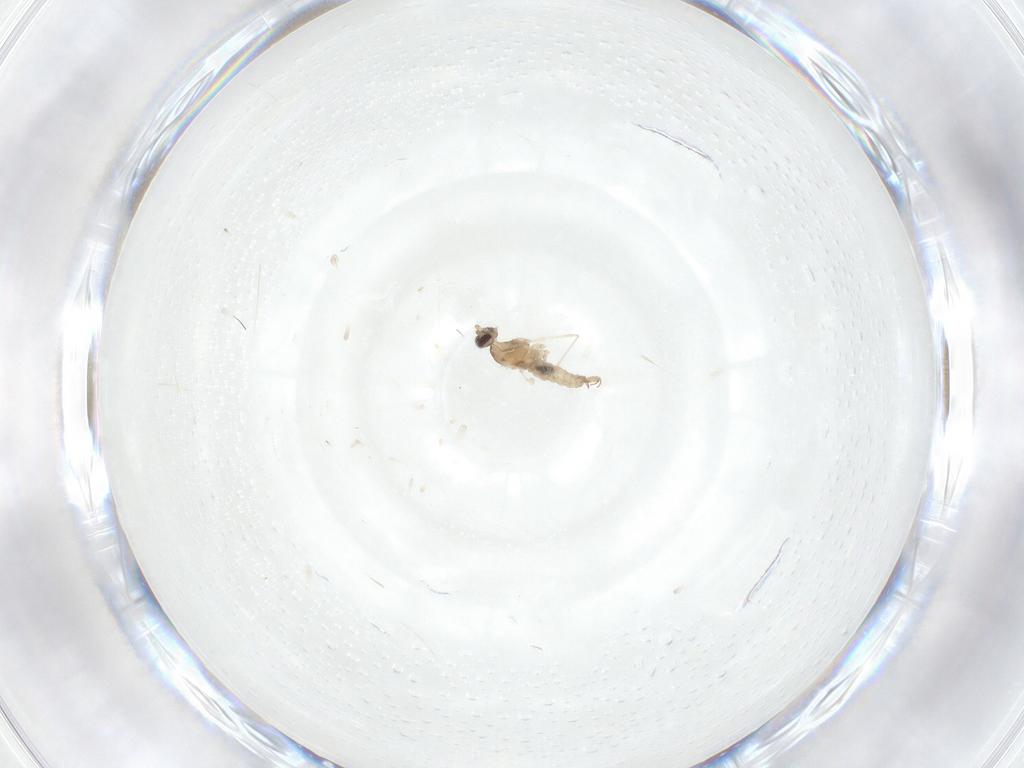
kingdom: Animalia
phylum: Arthropoda
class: Insecta
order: Diptera
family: Cecidomyiidae
